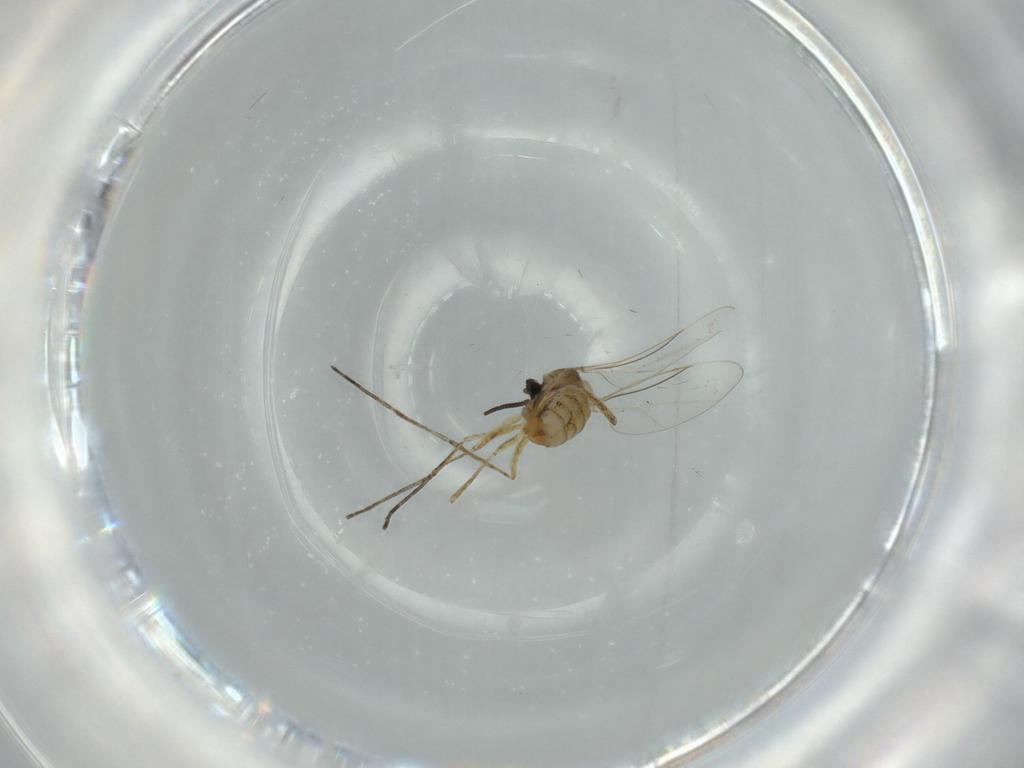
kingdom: Animalia
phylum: Arthropoda
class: Insecta
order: Diptera
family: Cecidomyiidae
